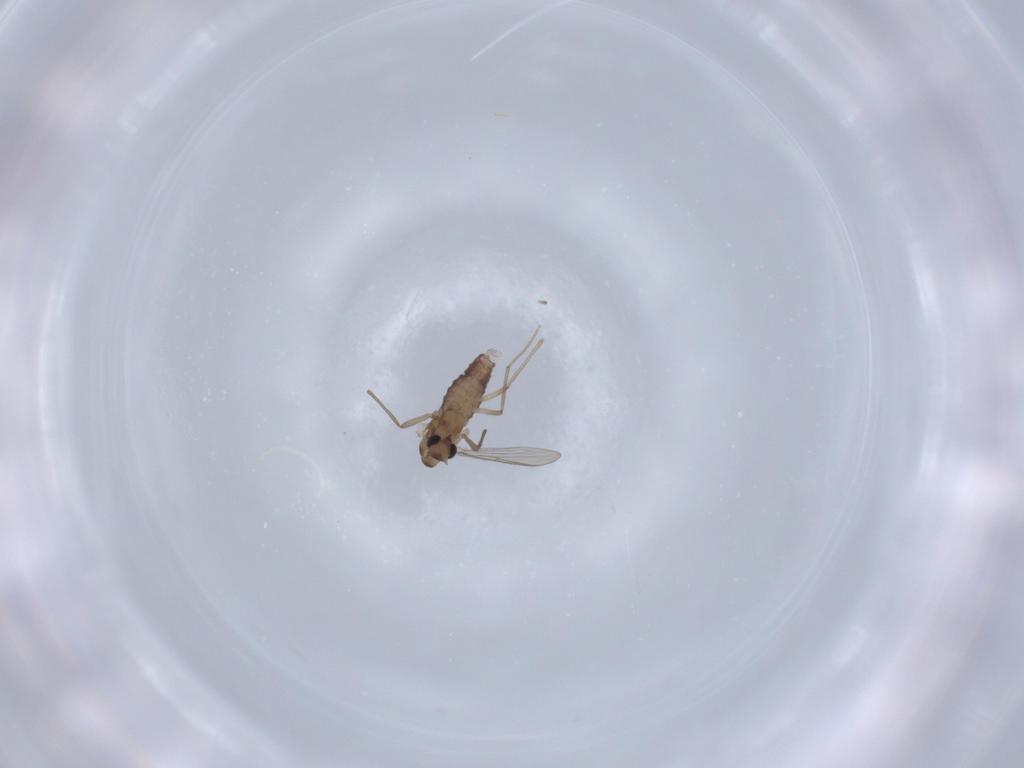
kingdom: Animalia
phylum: Arthropoda
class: Insecta
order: Diptera
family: Chironomidae
